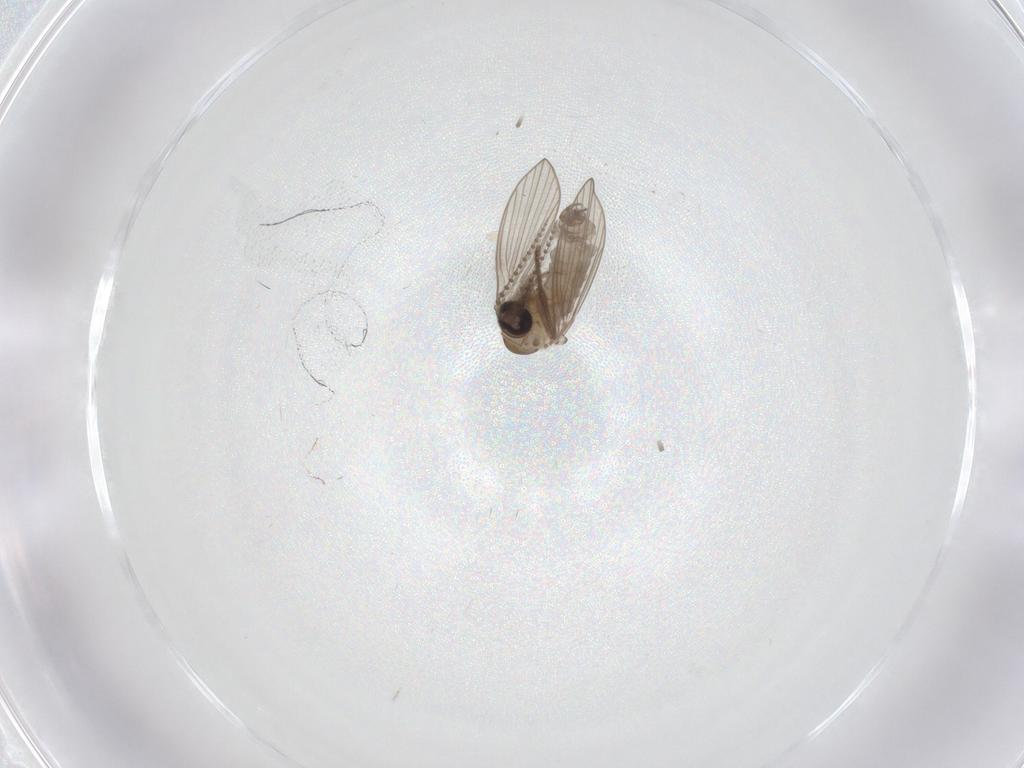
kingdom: Animalia
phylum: Arthropoda
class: Insecta
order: Diptera
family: Psychodidae
